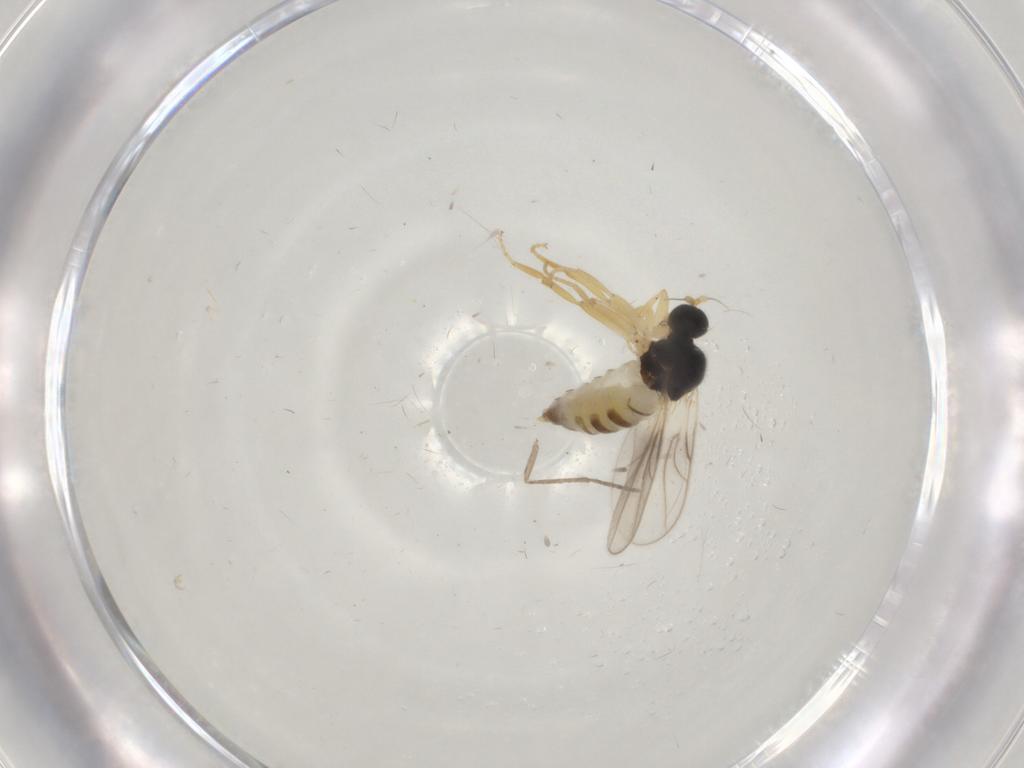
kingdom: Animalia
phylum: Arthropoda
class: Insecta
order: Diptera
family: Hybotidae
